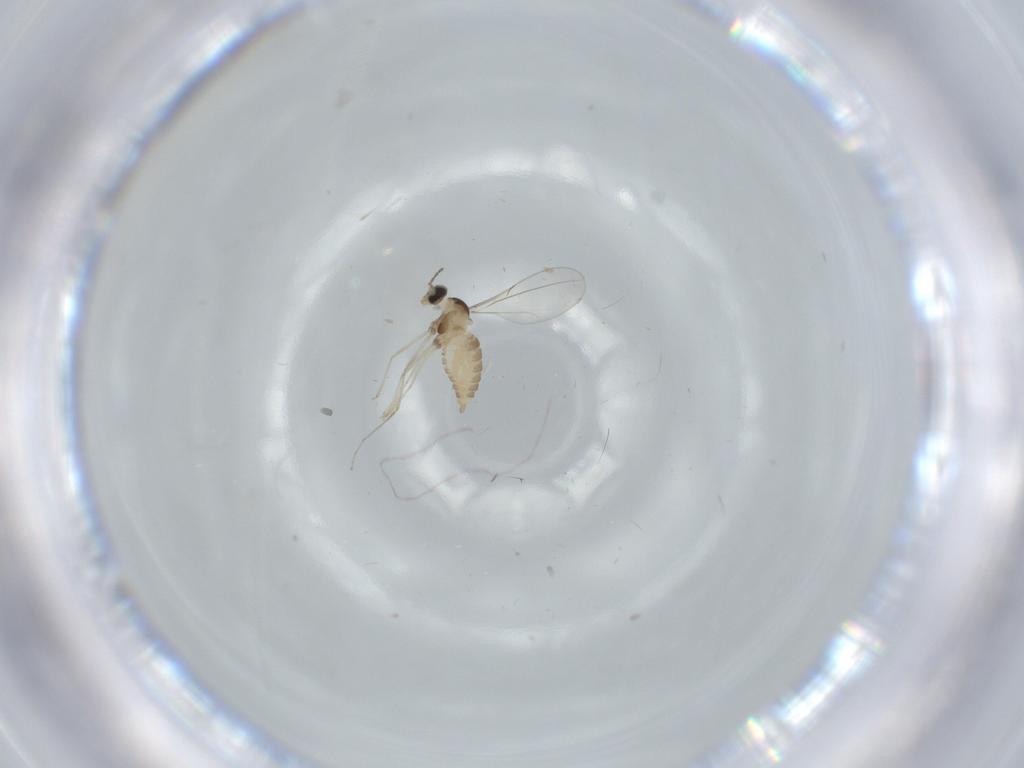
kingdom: Animalia
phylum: Arthropoda
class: Insecta
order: Diptera
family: Cecidomyiidae
